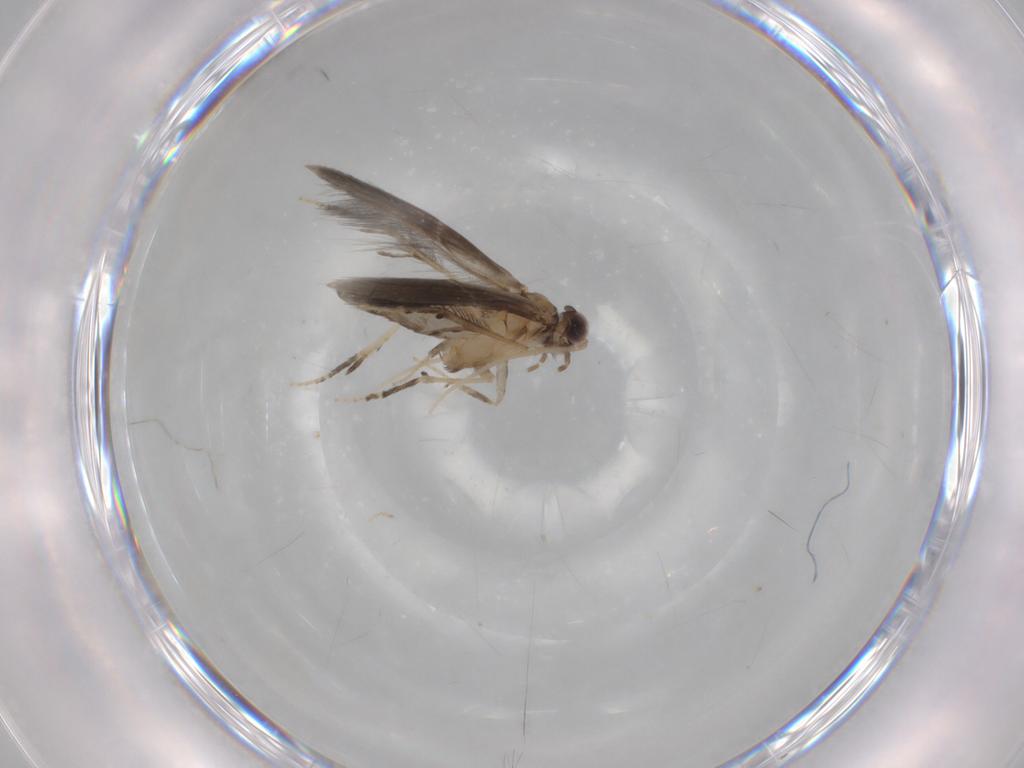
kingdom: Animalia
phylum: Arthropoda
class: Insecta
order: Trichoptera
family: Hydroptilidae
